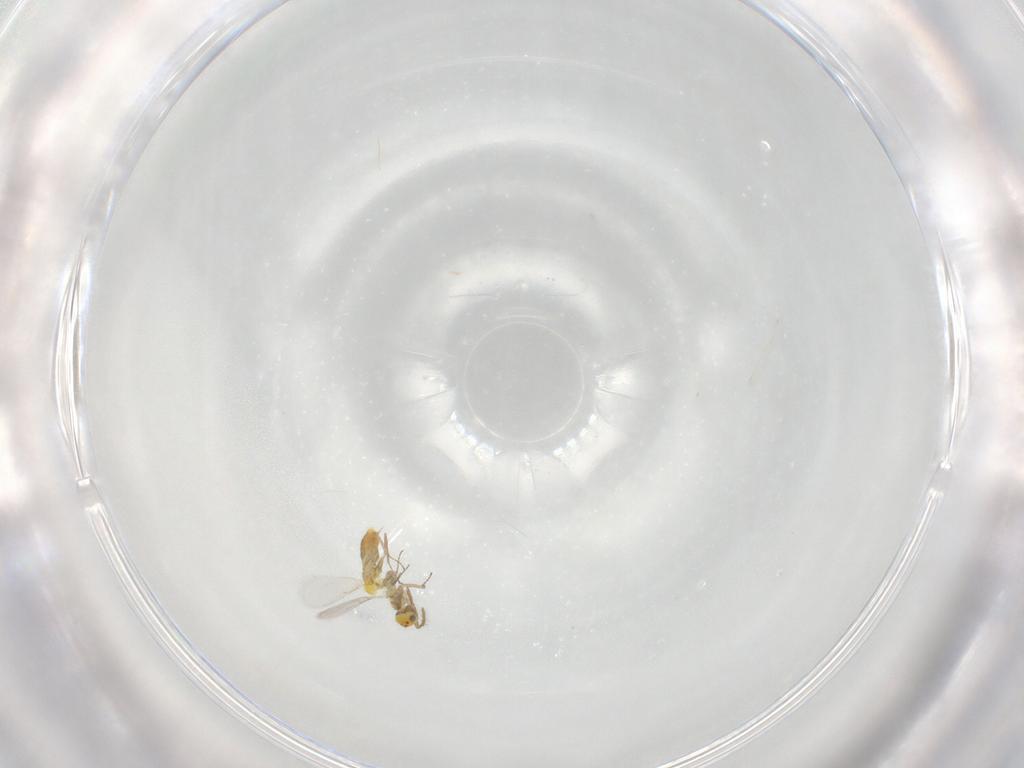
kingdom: Animalia
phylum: Arthropoda
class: Insecta
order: Hymenoptera
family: Aphelinidae
